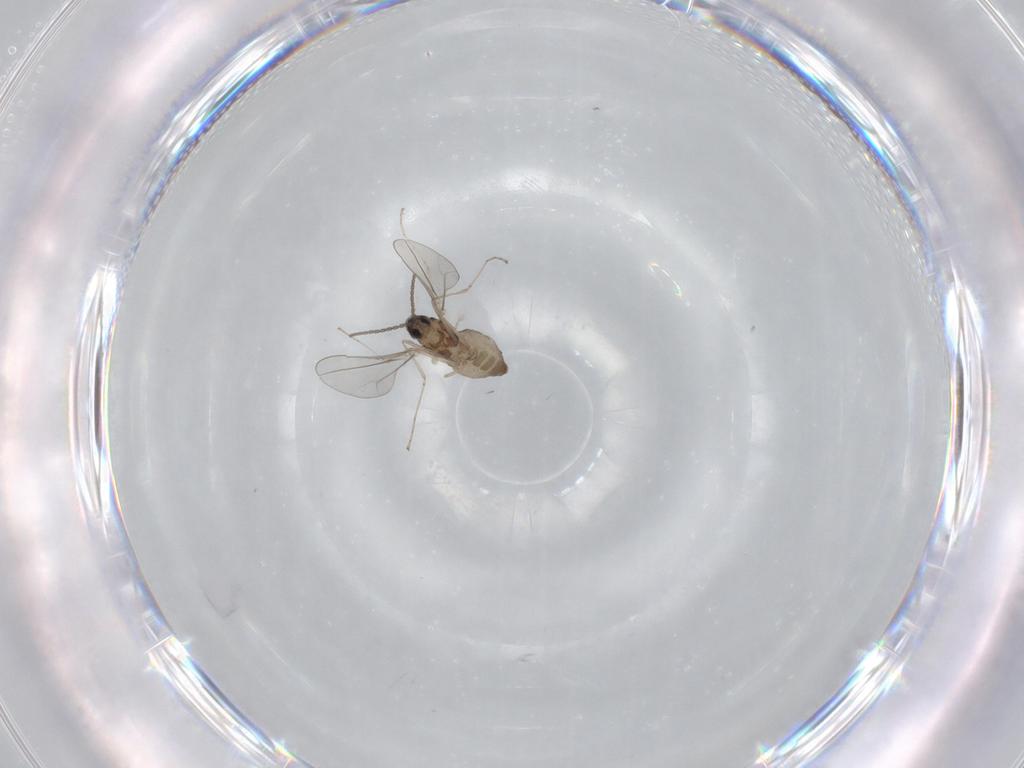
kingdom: Animalia
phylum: Arthropoda
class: Insecta
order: Diptera
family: Cecidomyiidae
